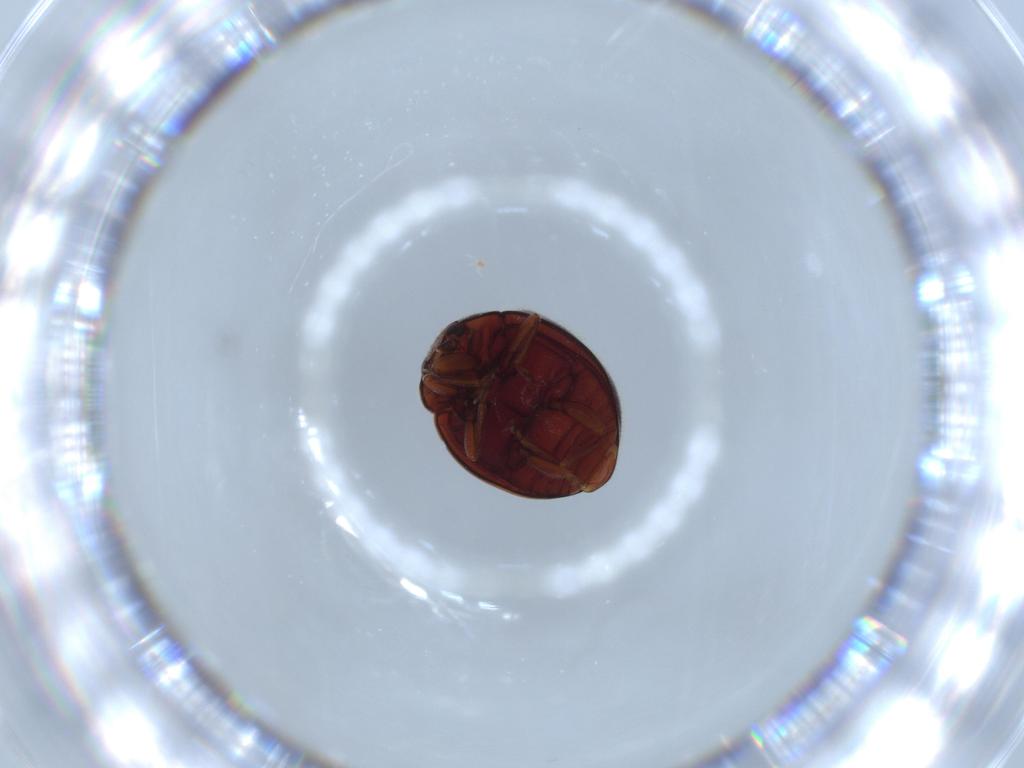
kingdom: Animalia
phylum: Arthropoda
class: Insecta
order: Coleoptera
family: Coccinellidae
